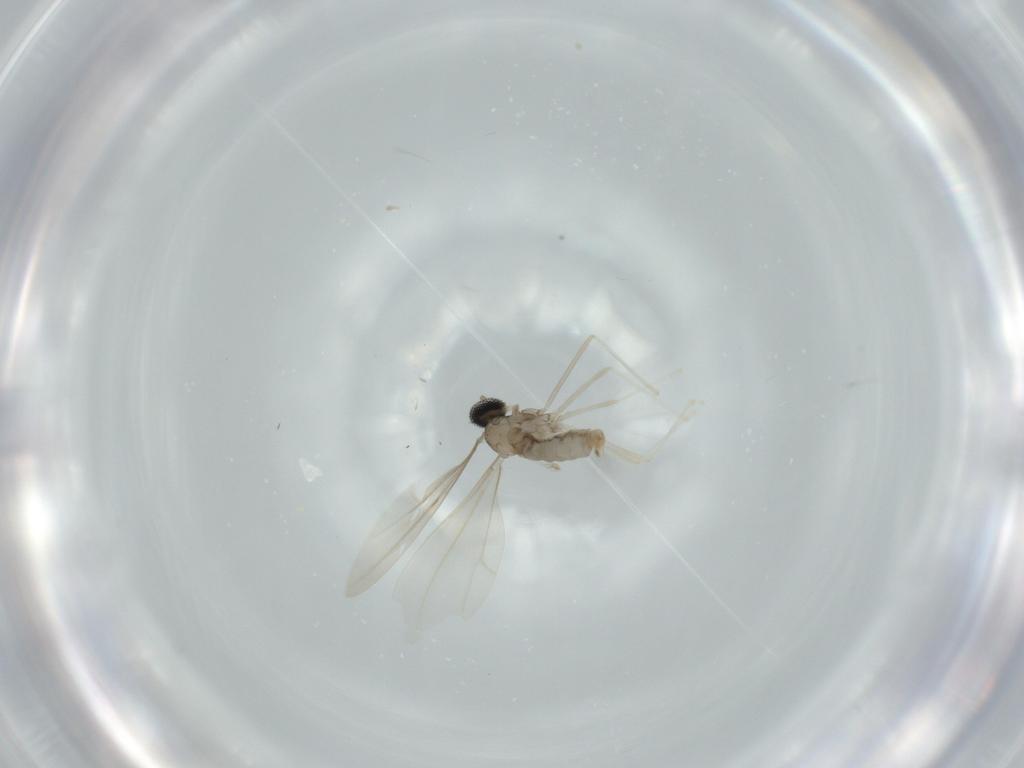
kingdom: Animalia
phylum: Arthropoda
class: Insecta
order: Diptera
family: Cecidomyiidae
